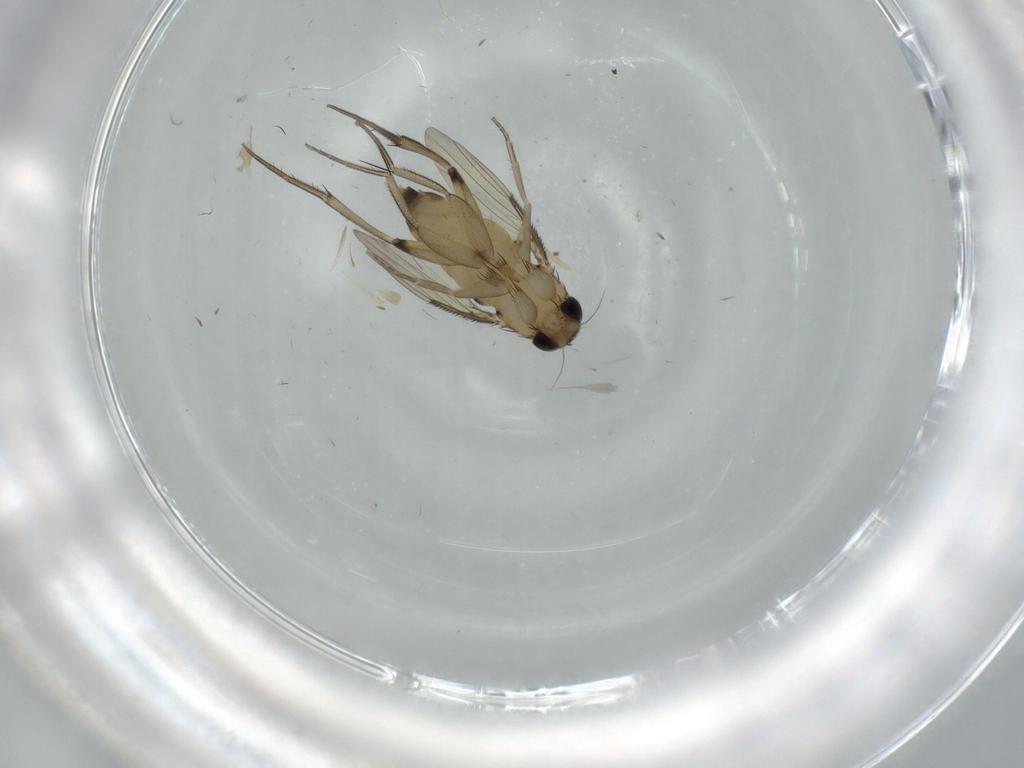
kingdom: Animalia
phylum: Arthropoda
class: Insecta
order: Diptera
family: Phoridae
